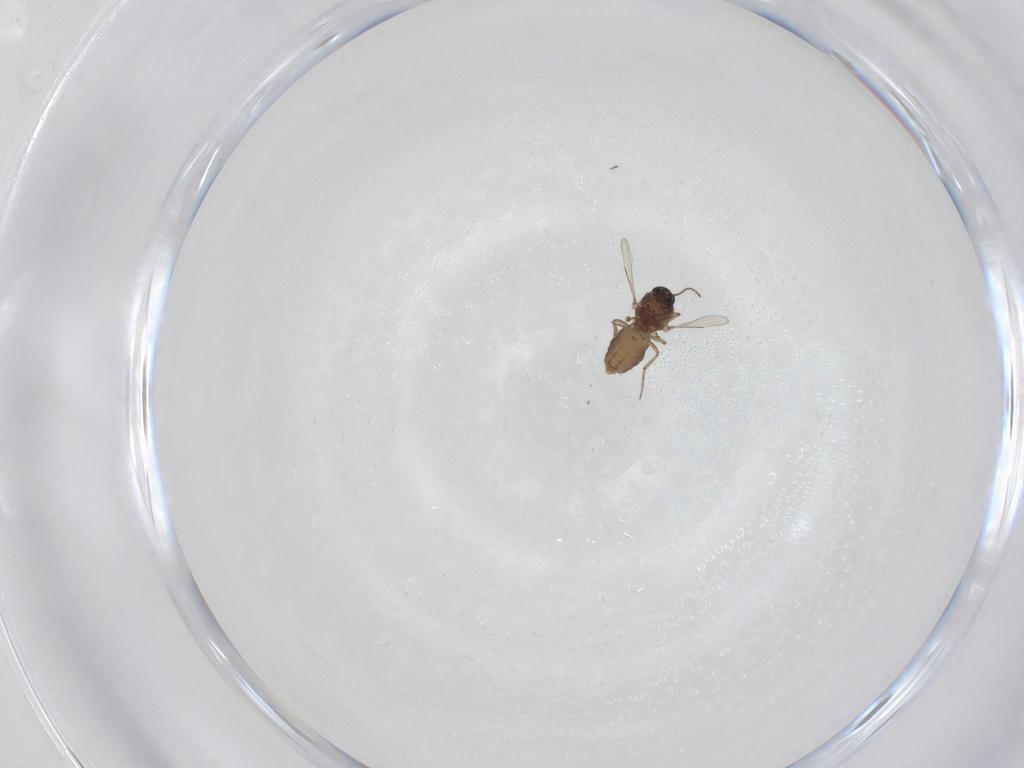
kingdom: Animalia
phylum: Arthropoda
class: Insecta
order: Diptera
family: Ceratopogonidae
